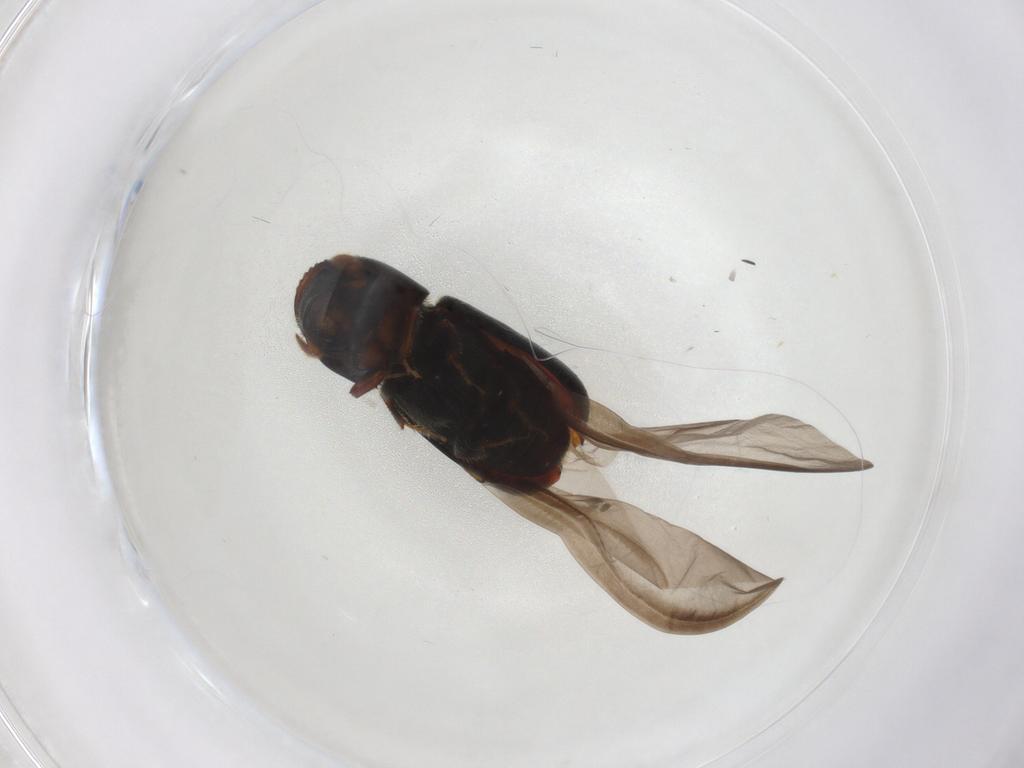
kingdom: Animalia
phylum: Arthropoda
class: Insecta
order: Coleoptera
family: Curculionidae
